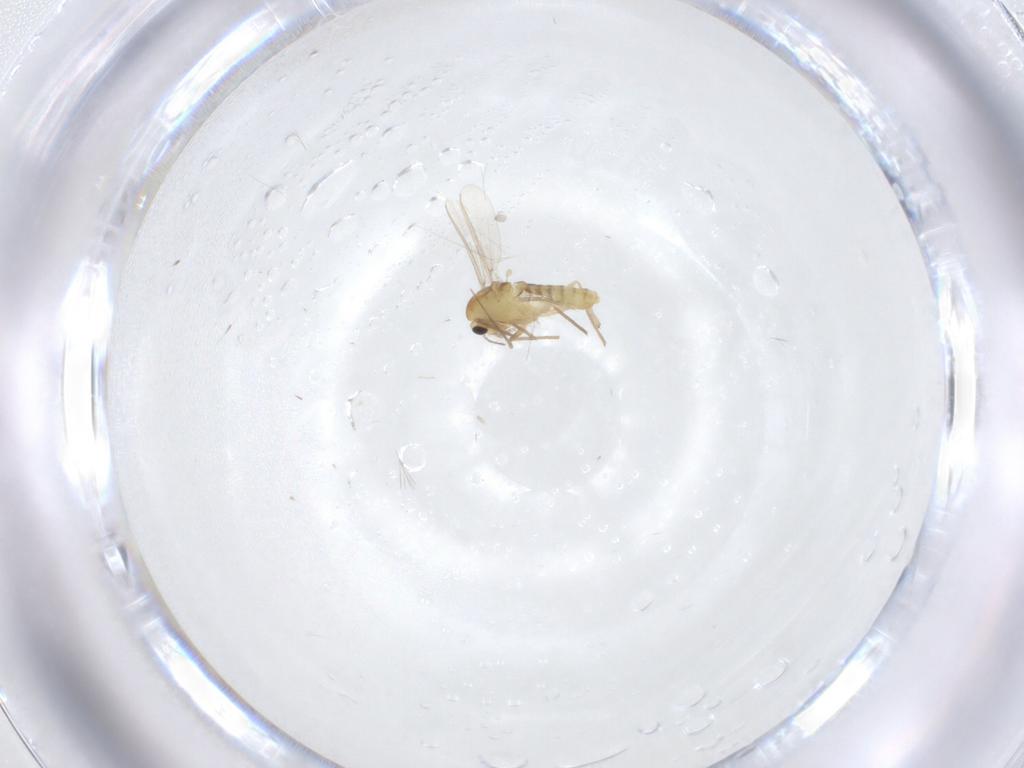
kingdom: Animalia
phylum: Arthropoda
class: Insecta
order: Diptera
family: Chironomidae
